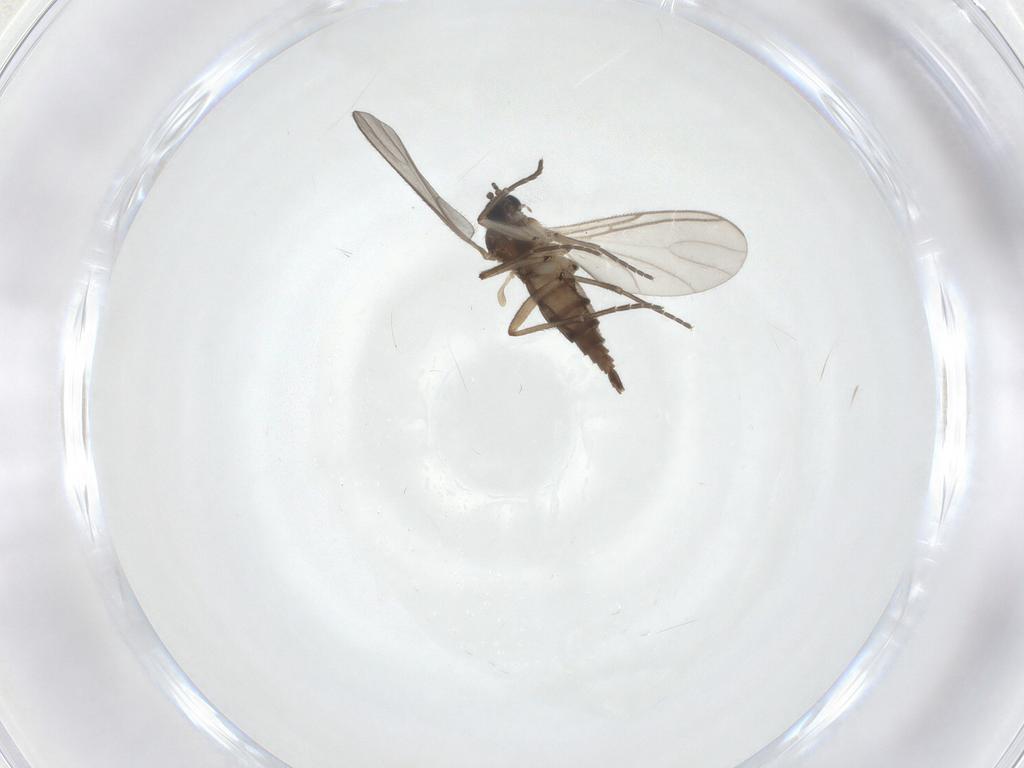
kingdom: Animalia
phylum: Arthropoda
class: Insecta
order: Diptera
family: Sciaridae
